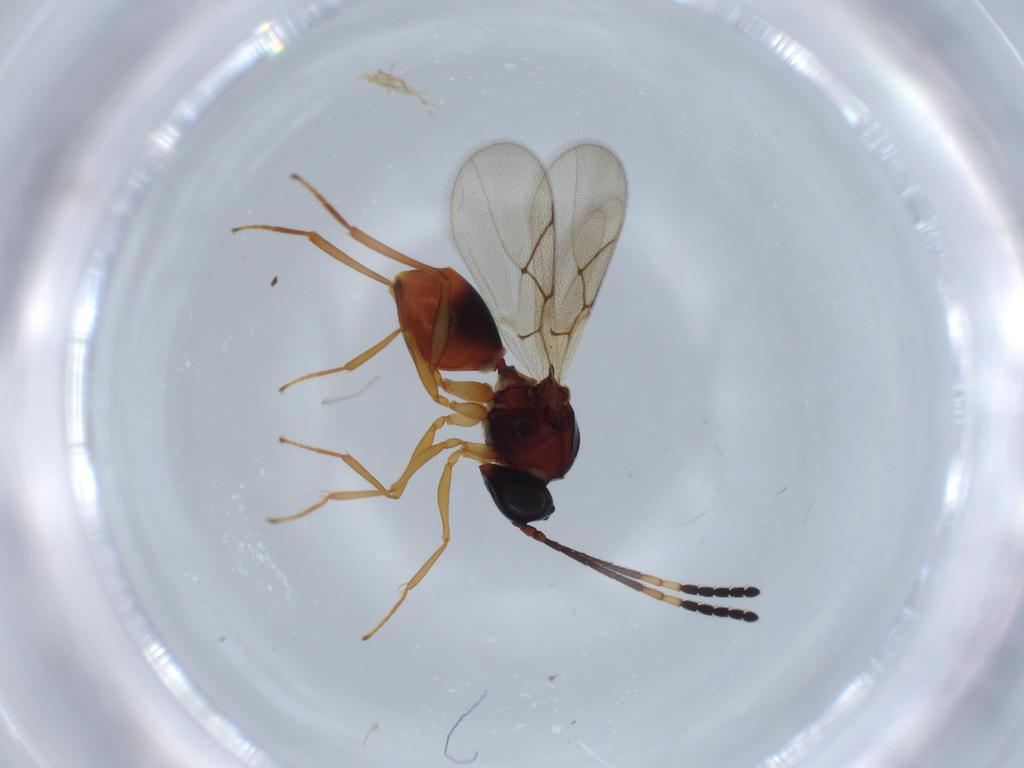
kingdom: Animalia
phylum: Arthropoda
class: Insecta
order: Hymenoptera
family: Figitidae
